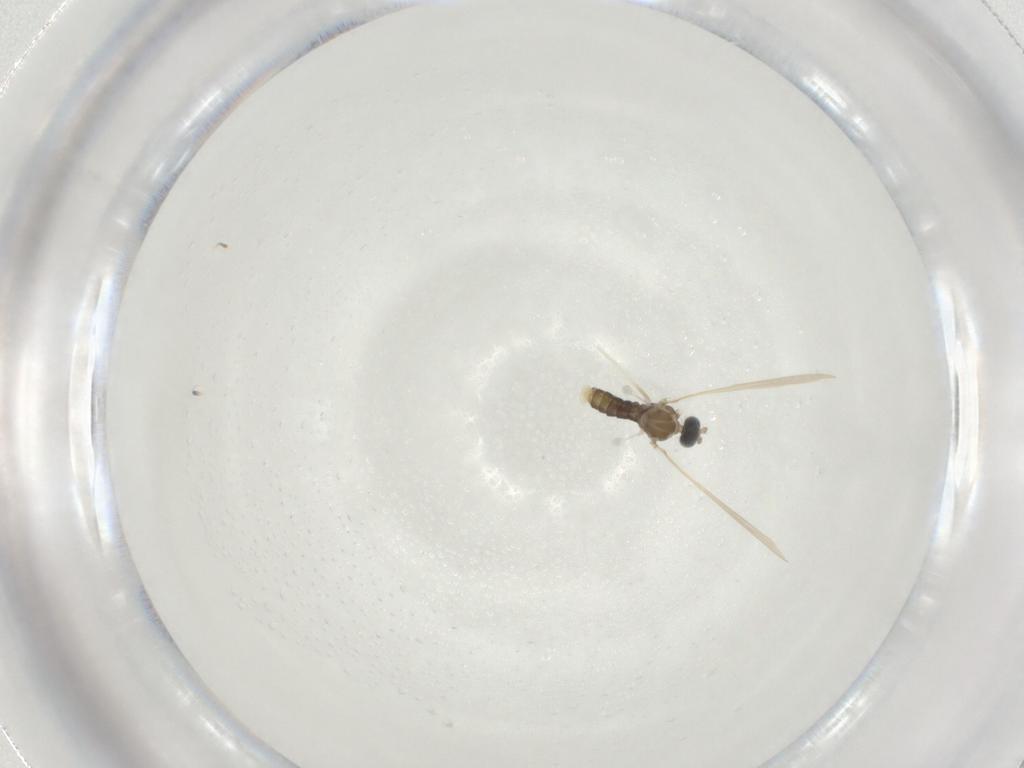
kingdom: Animalia
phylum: Arthropoda
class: Insecta
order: Diptera
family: Cecidomyiidae
